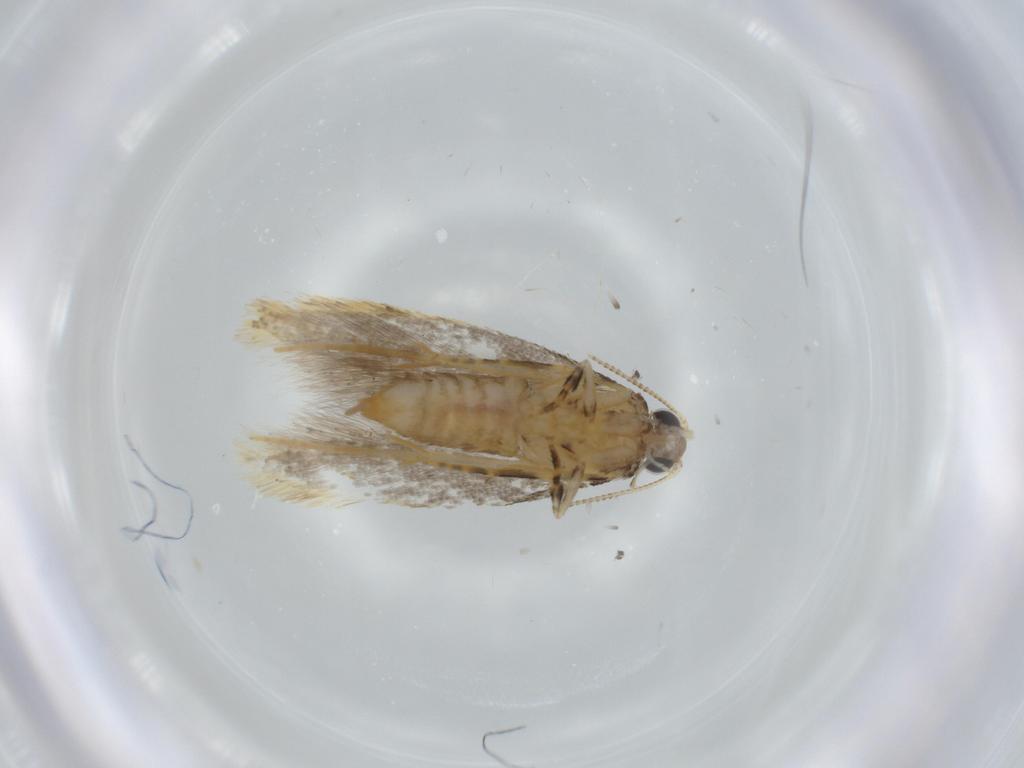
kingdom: Animalia
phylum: Arthropoda
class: Insecta
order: Lepidoptera
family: Tineidae
